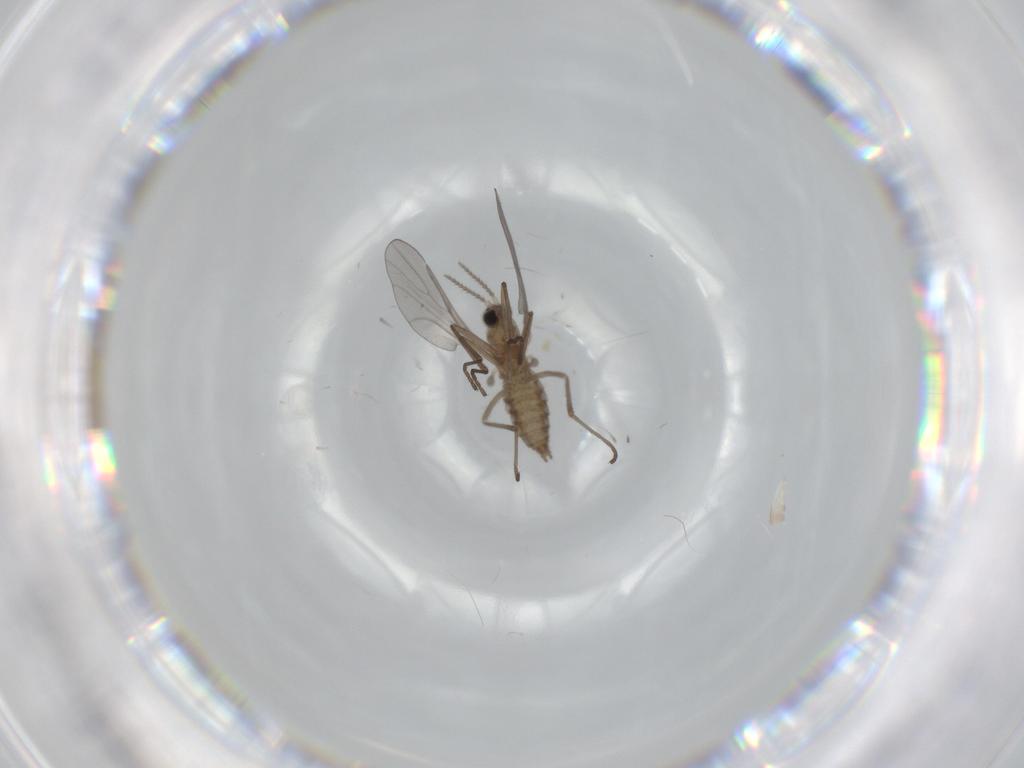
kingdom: Animalia
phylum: Arthropoda
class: Insecta
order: Diptera
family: Cecidomyiidae
